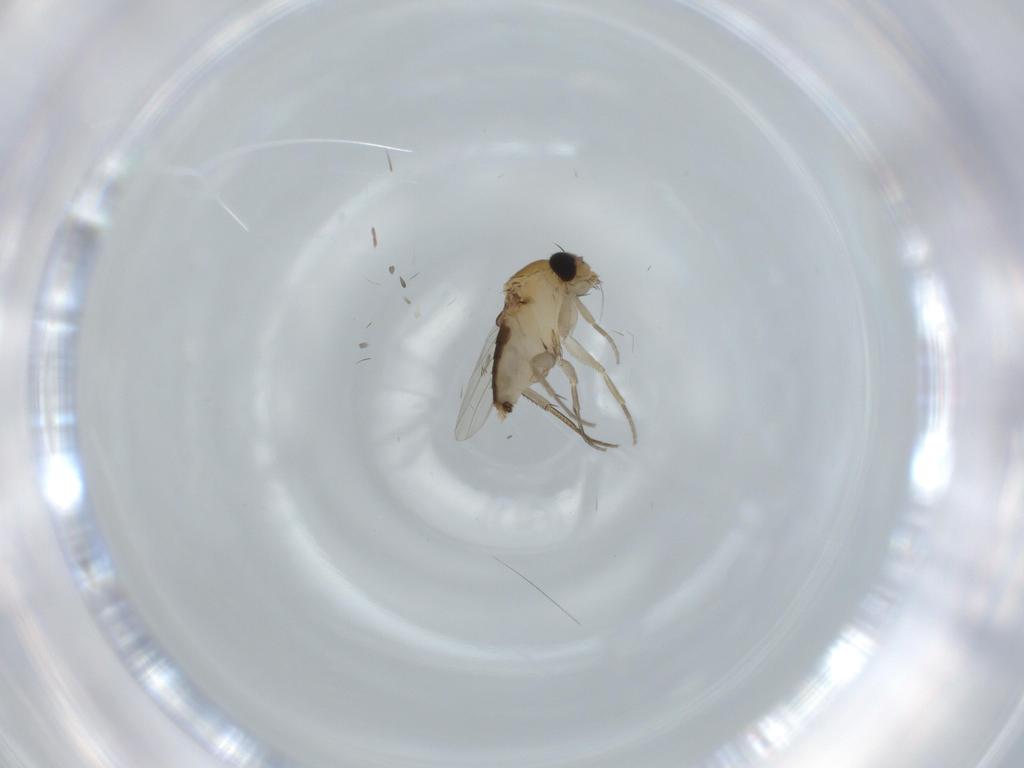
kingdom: Animalia
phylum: Arthropoda
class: Insecta
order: Diptera
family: Phoridae
